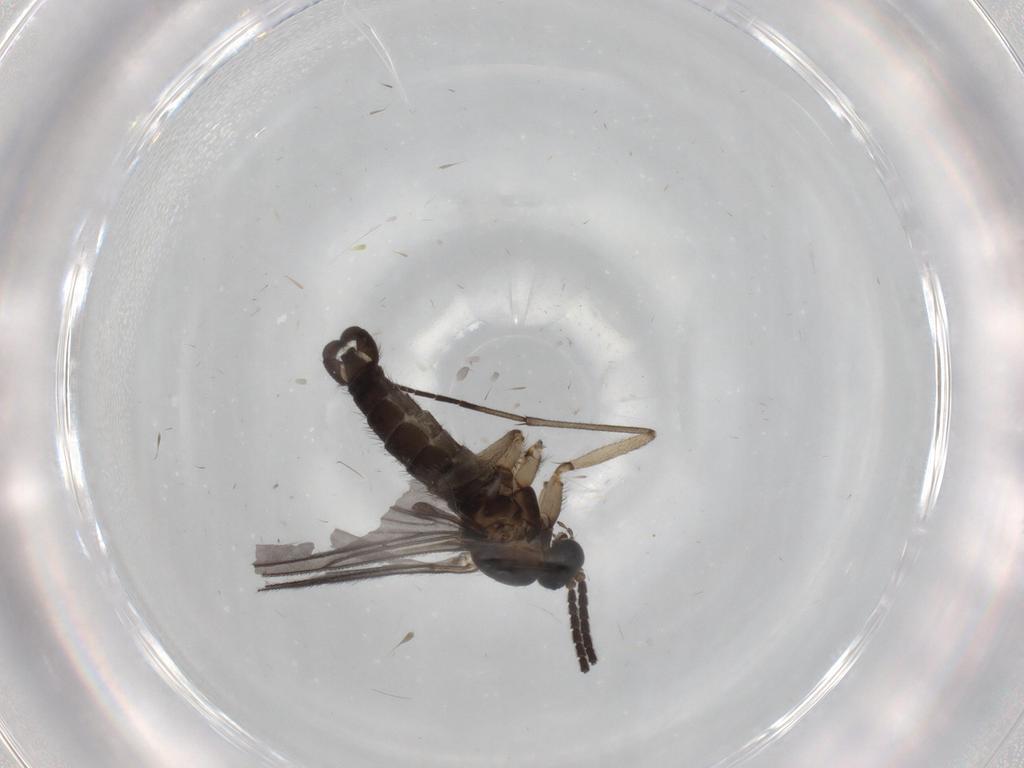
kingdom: Animalia
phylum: Arthropoda
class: Insecta
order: Diptera
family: Sciaridae
